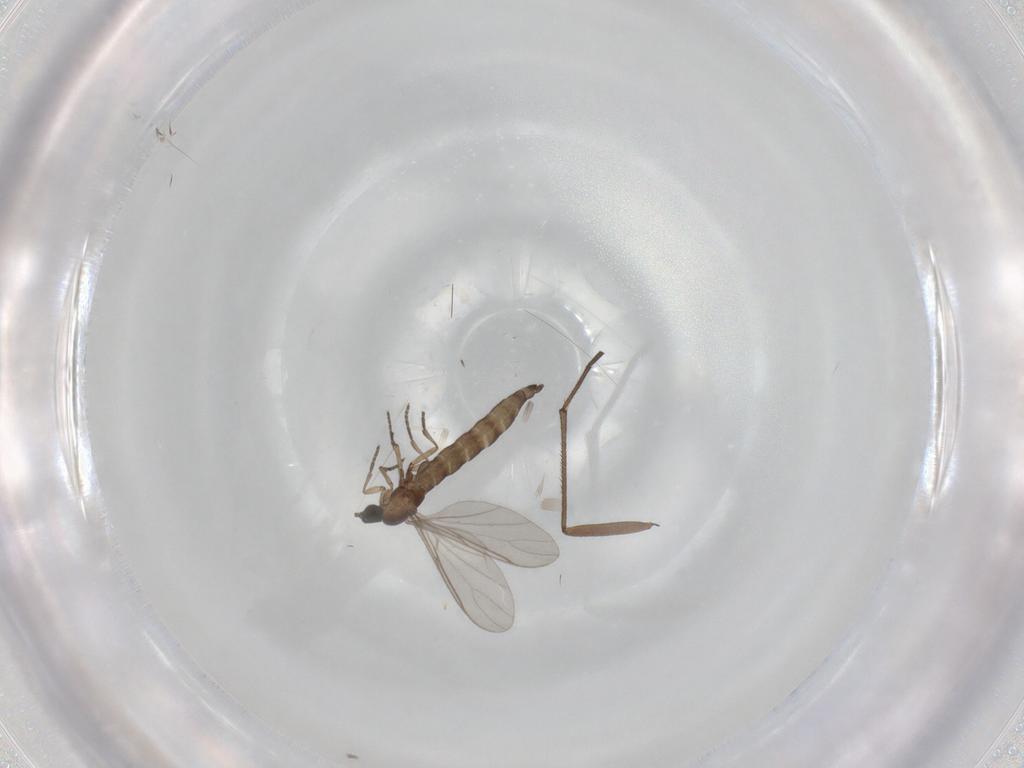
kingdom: Animalia
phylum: Arthropoda
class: Insecta
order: Diptera
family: Sciaridae
